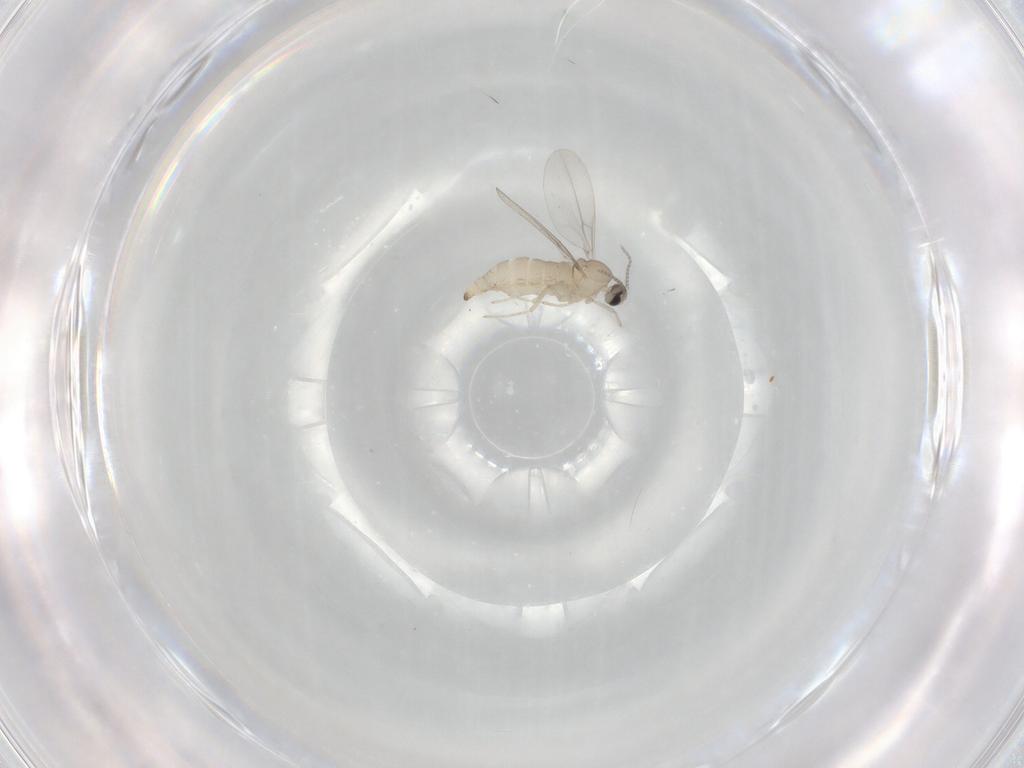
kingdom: Animalia
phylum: Arthropoda
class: Insecta
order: Diptera
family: Cecidomyiidae
